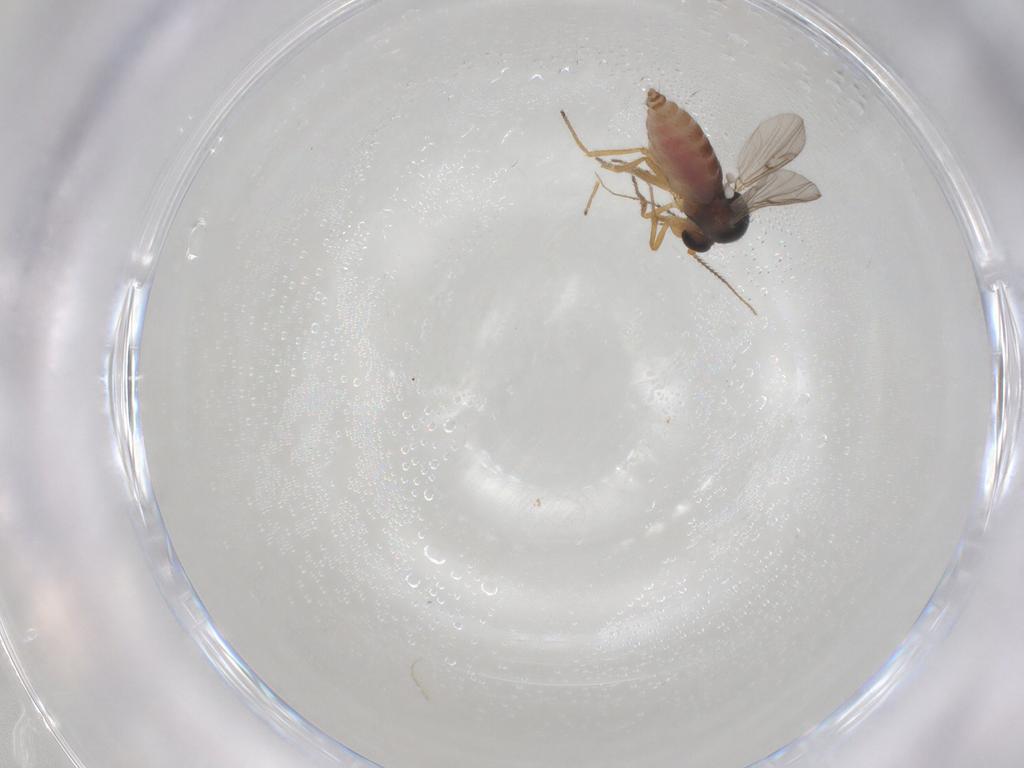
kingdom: Animalia
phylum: Arthropoda
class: Insecta
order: Diptera
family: Ceratopogonidae
